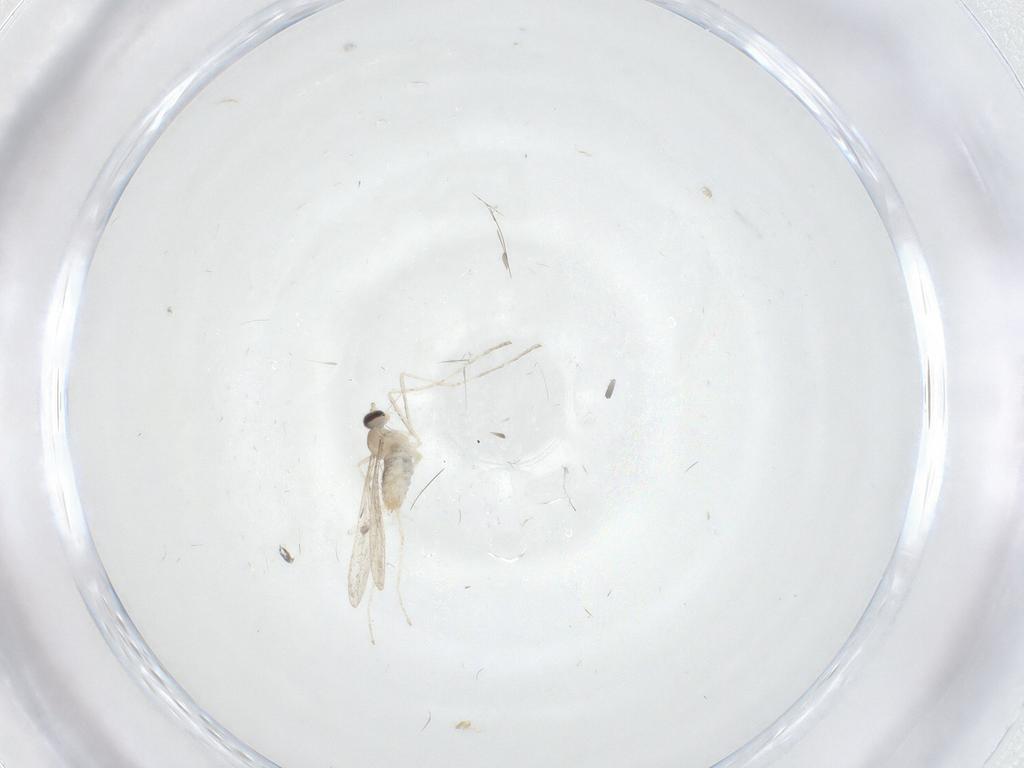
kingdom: Animalia
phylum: Arthropoda
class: Insecta
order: Diptera
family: Cecidomyiidae
